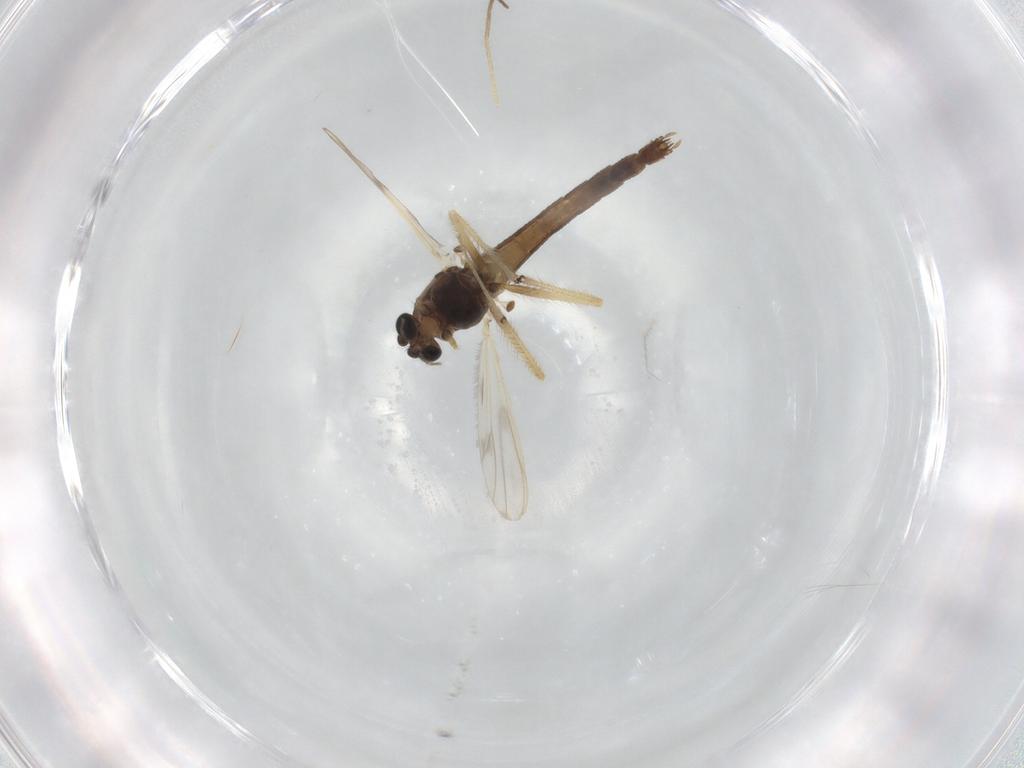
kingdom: Animalia
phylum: Arthropoda
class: Insecta
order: Diptera
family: Chironomidae
